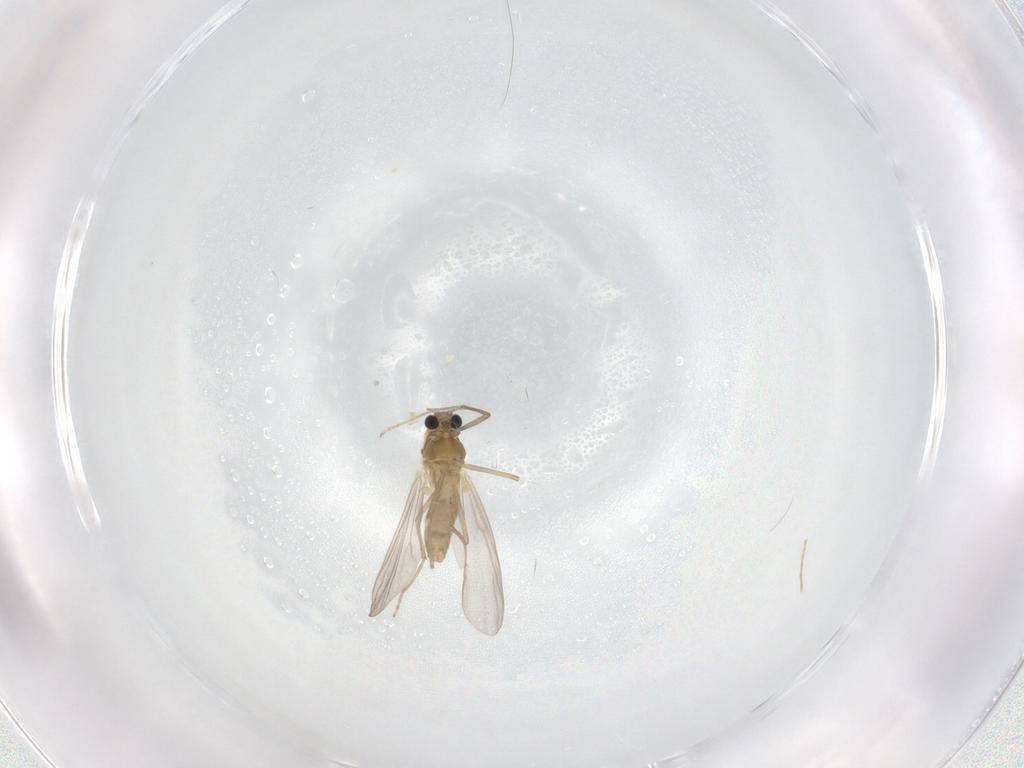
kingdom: Animalia
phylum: Arthropoda
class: Insecta
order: Diptera
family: Chironomidae
